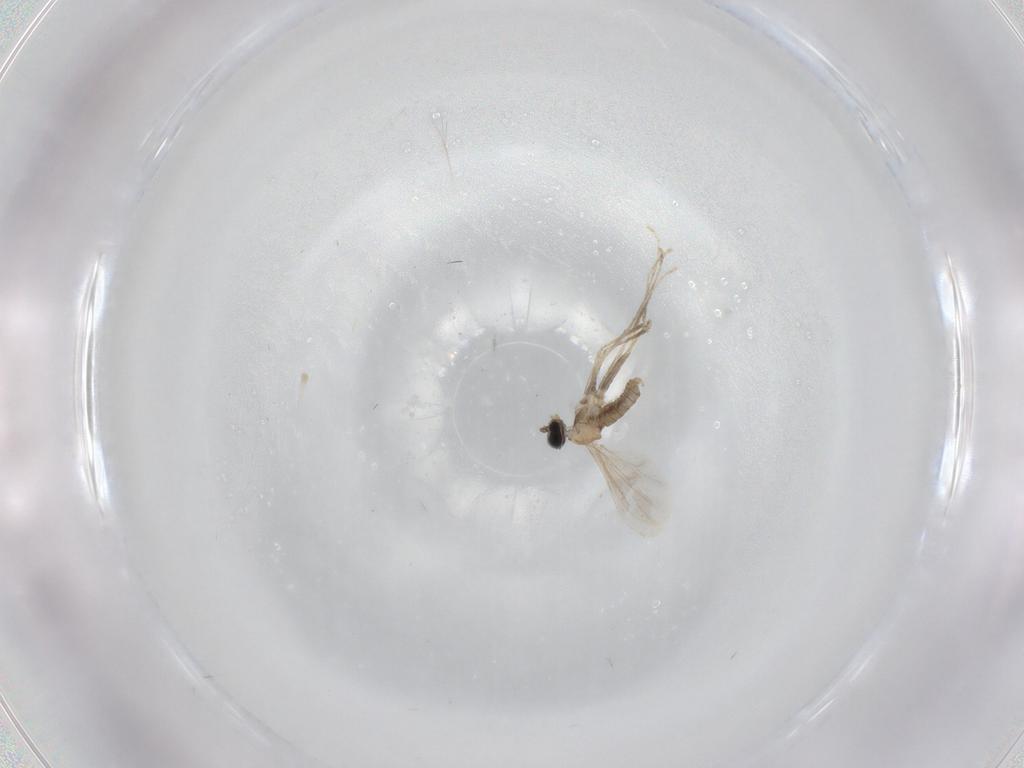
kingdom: Animalia
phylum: Arthropoda
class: Insecta
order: Diptera
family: Cecidomyiidae
